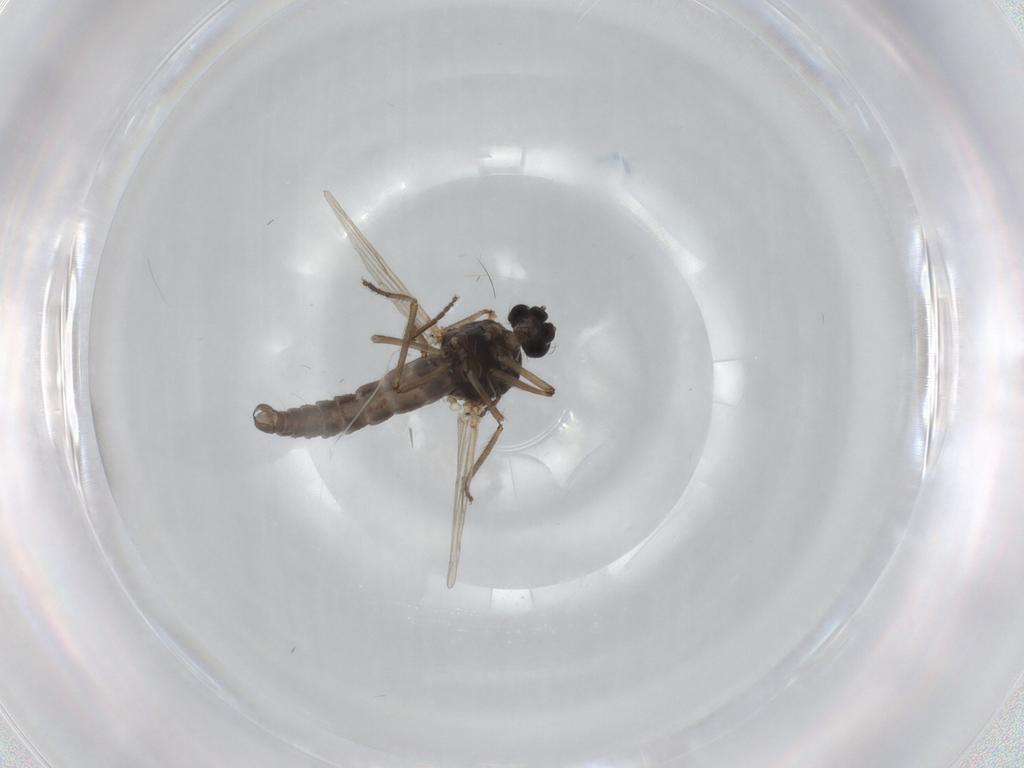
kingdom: Animalia
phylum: Arthropoda
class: Insecta
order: Diptera
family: Ceratopogonidae
